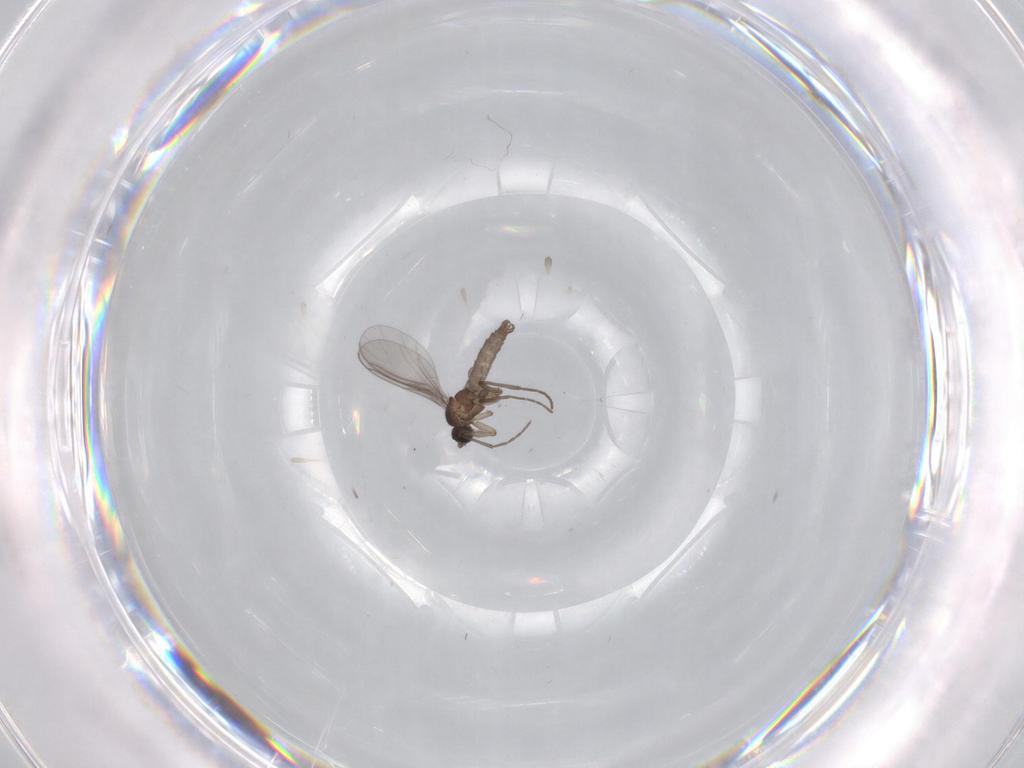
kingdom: Animalia
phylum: Arthropoda
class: Insecta
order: Diptera
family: Sciaridae
